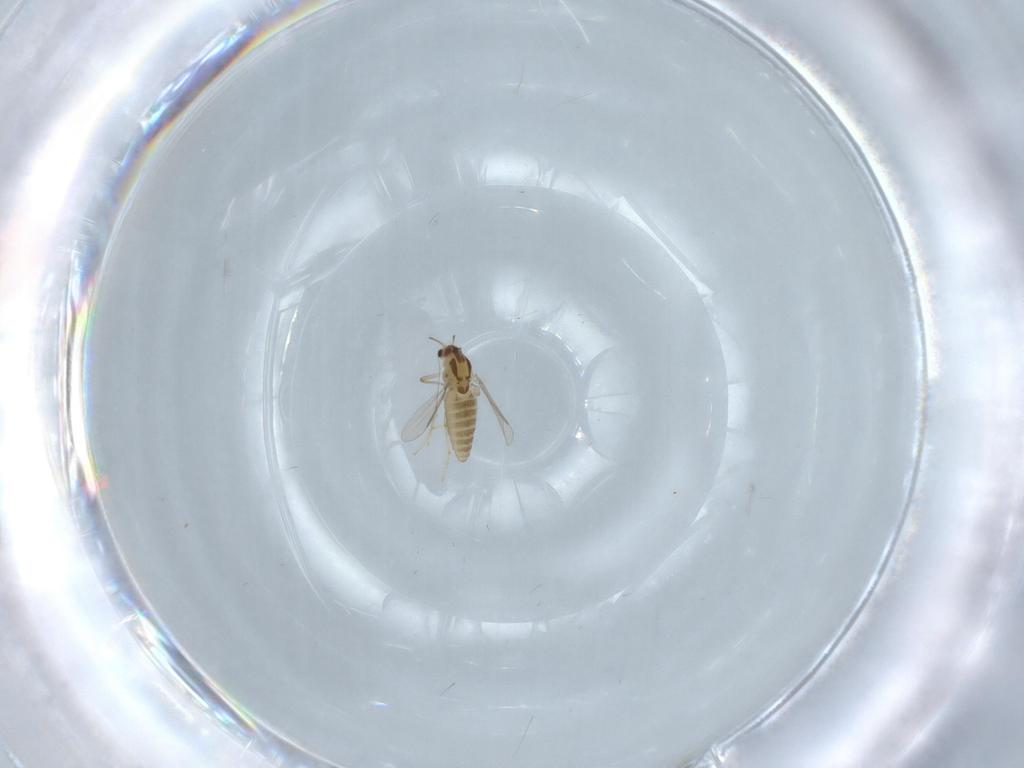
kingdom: Animalia
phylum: Arthropoda
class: Insecta
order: Diptera
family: Chironomidae
